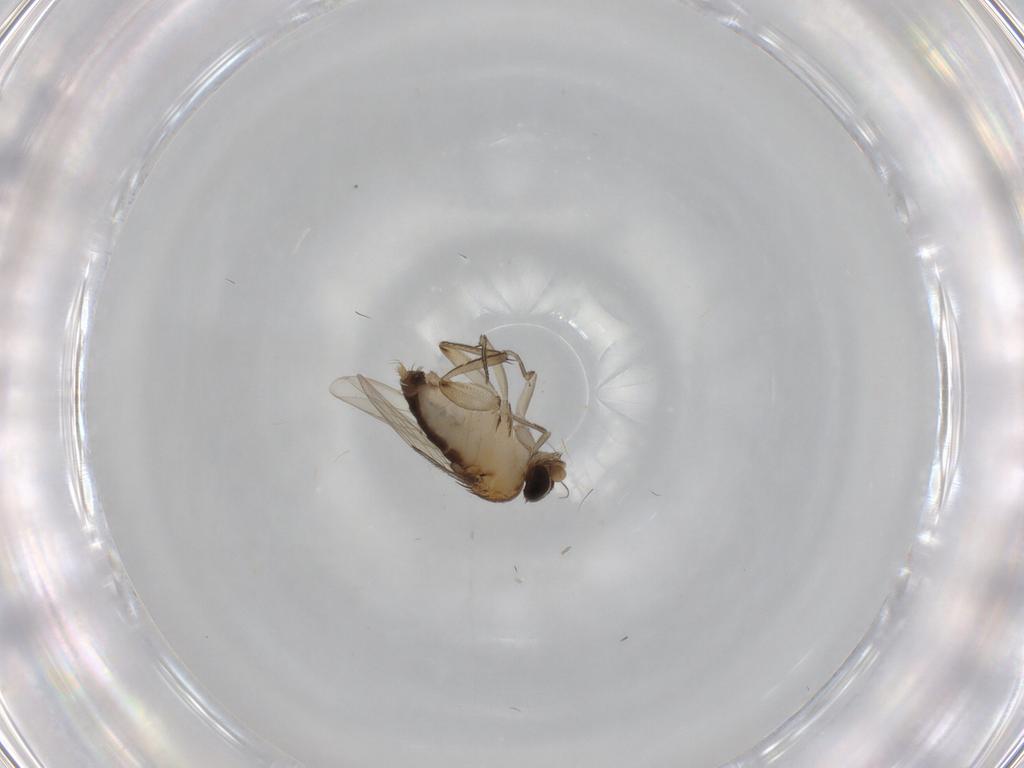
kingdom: Animalia
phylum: Arthropoda
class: Insecta
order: Diptera
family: Phoridae
